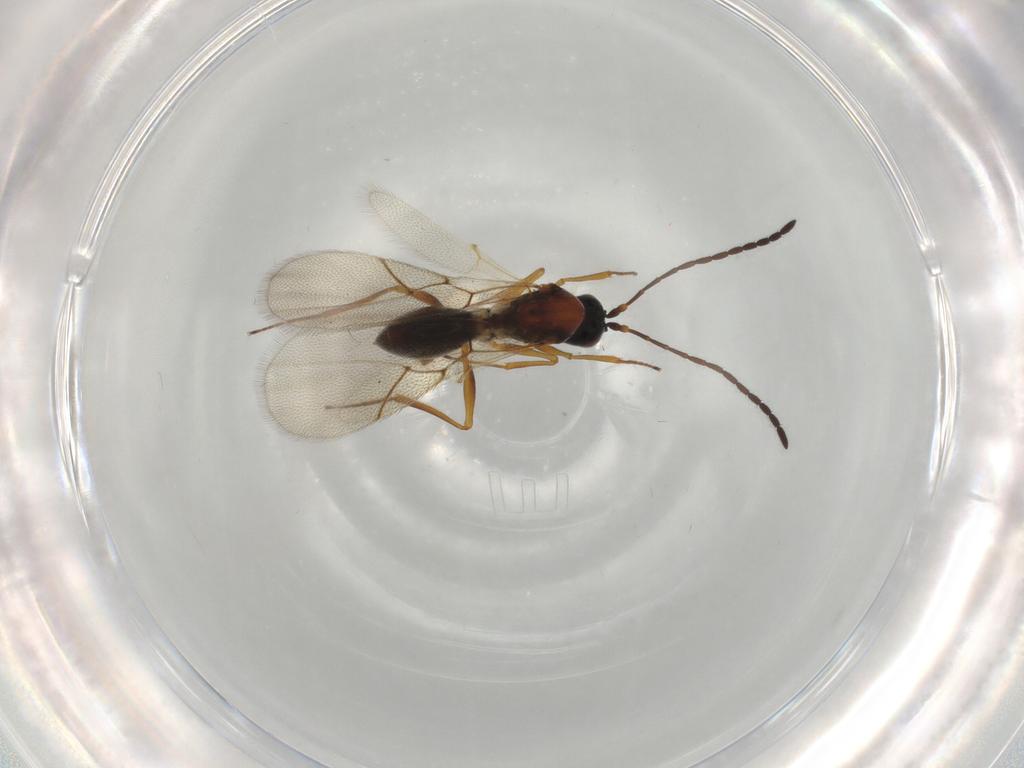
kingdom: Animalia
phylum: Arthropoda
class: Insecta
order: Hymenoptera
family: Figitidae
